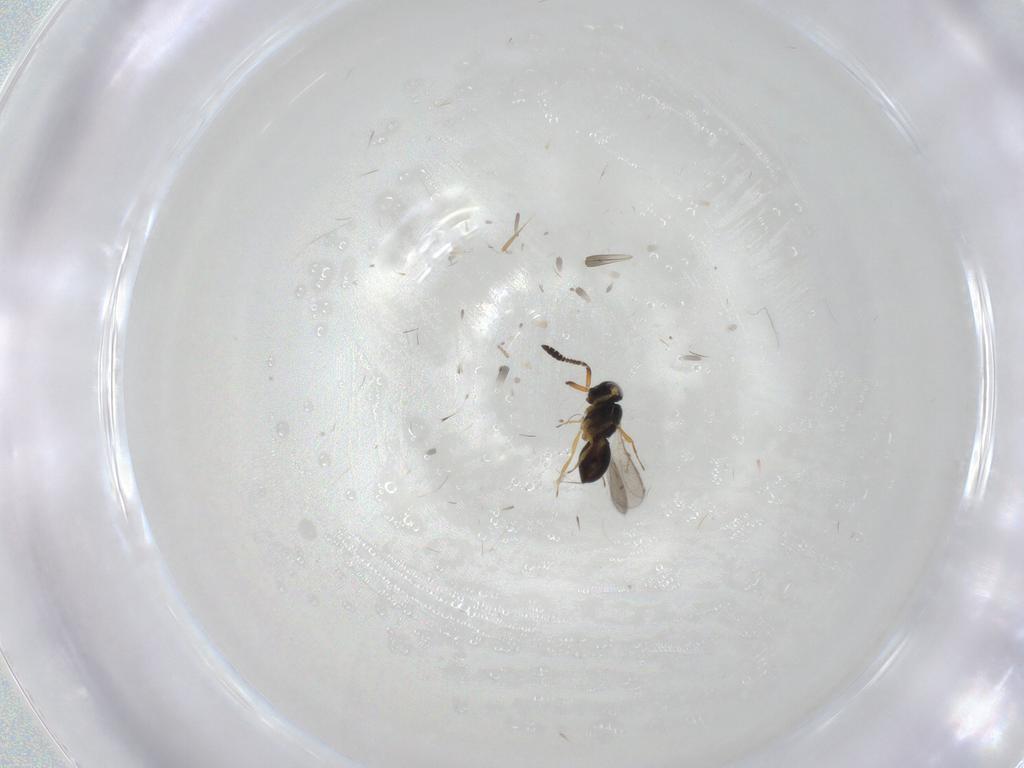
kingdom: Animalia
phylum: Arthropoda
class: Insecta
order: Hymenoptera
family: Scelionidae
